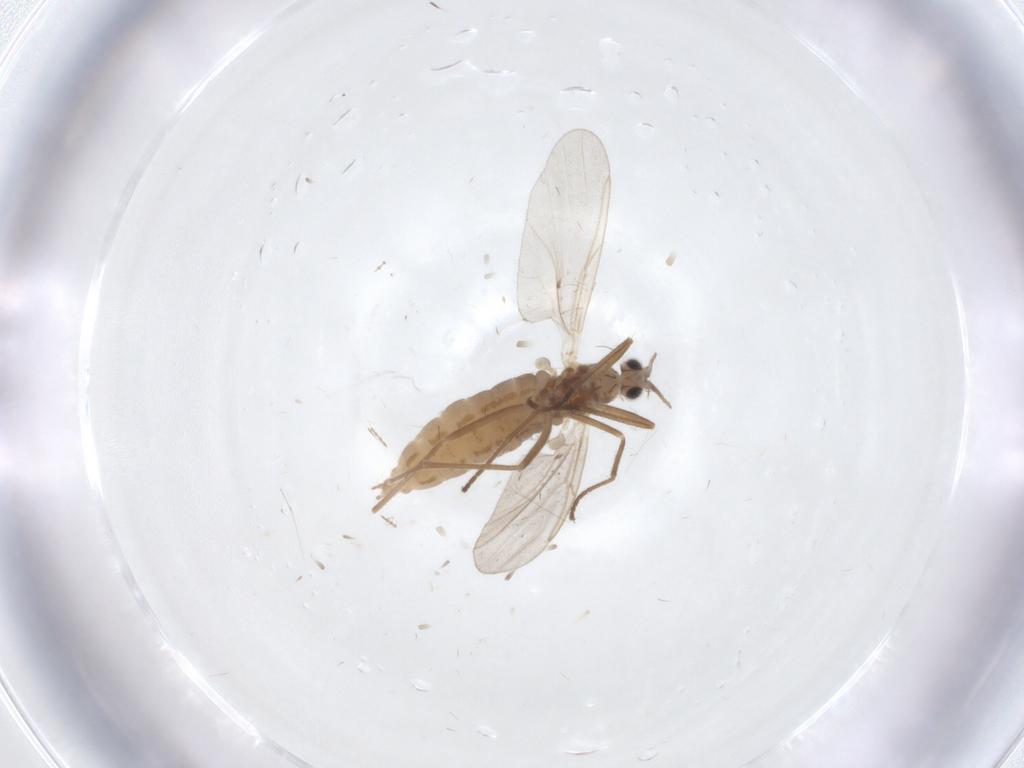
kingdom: Animalia
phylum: Arthropoda
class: Insecta
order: Diptera
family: Cecidomyiidae
